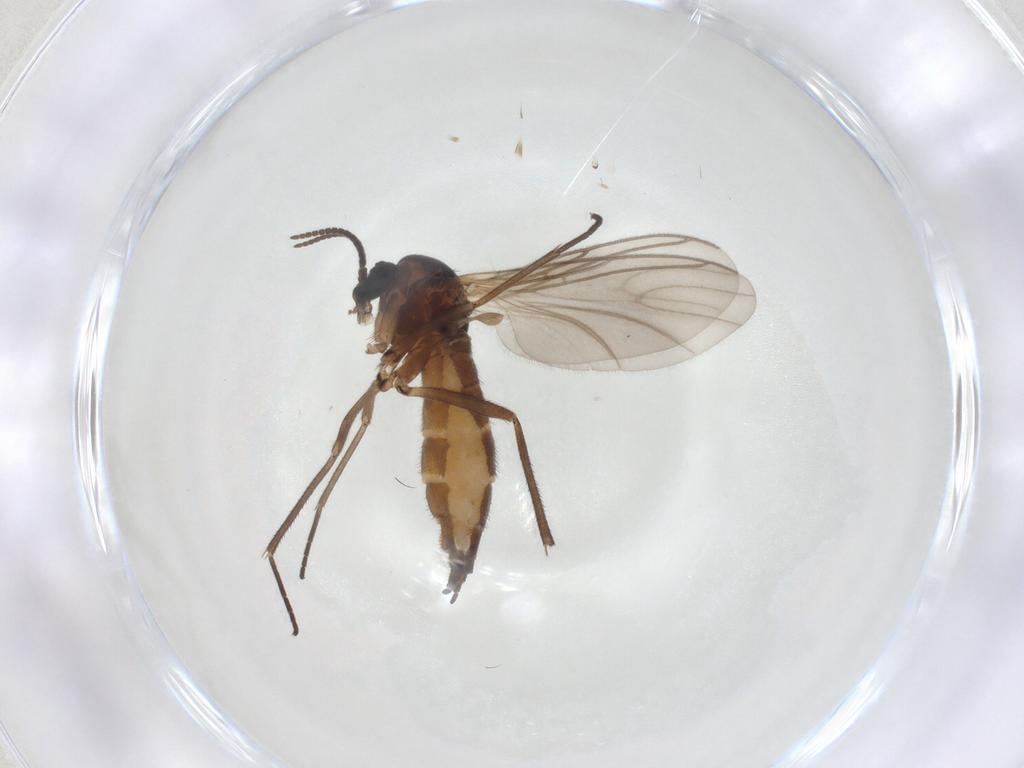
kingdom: Animalia
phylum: Arthropoda
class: Insecta
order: Diptera
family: Sciaridae
